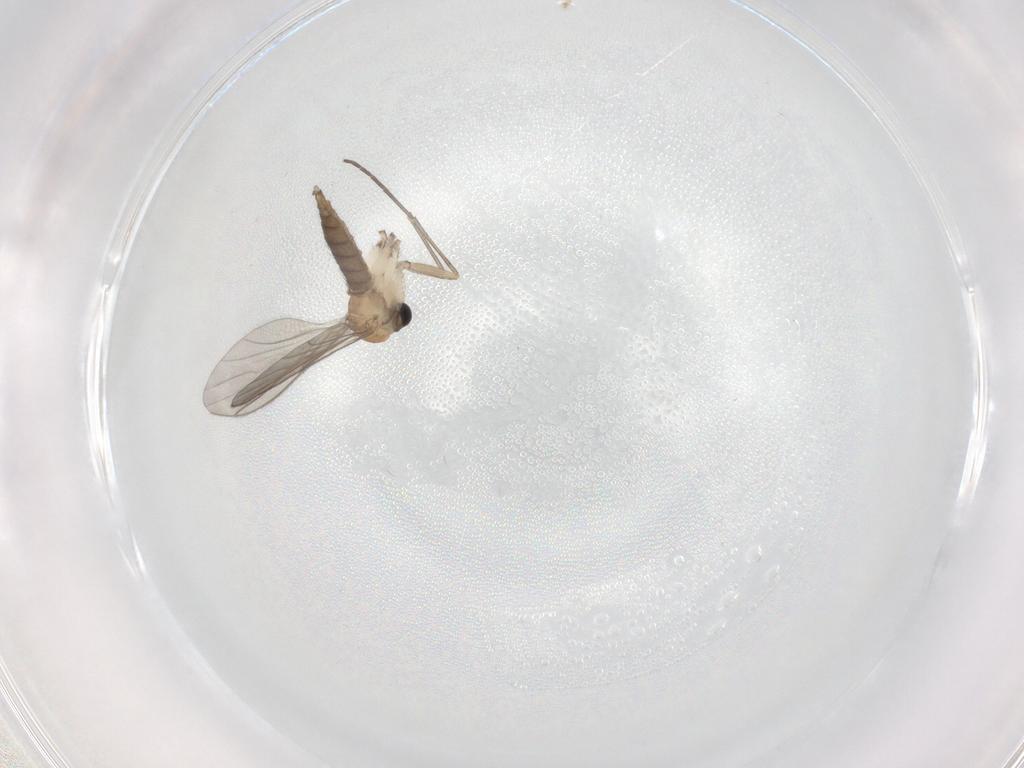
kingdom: Animalia
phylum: Arthropoda
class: Insecta
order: Diptera
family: Sciaridae
